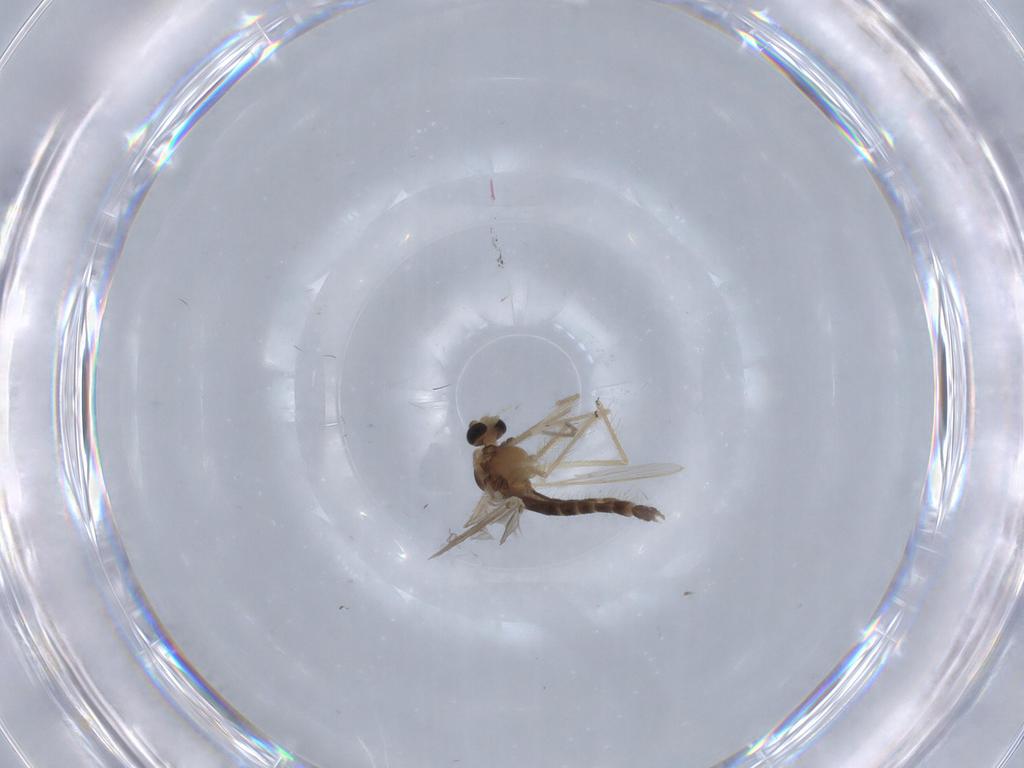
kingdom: Animalia
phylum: Arthropoda
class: Insecta
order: Diptera
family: Chironomidae
